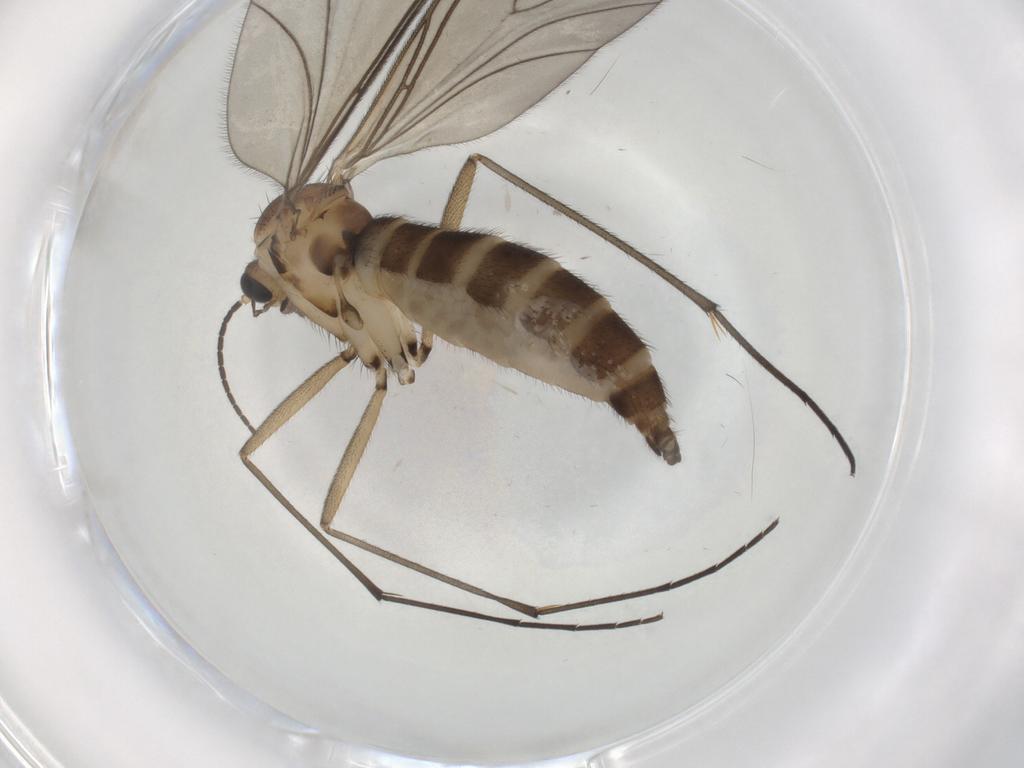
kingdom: Animalia
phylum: Arthropoda
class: Insecta
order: Diptera
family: Sciaridae
